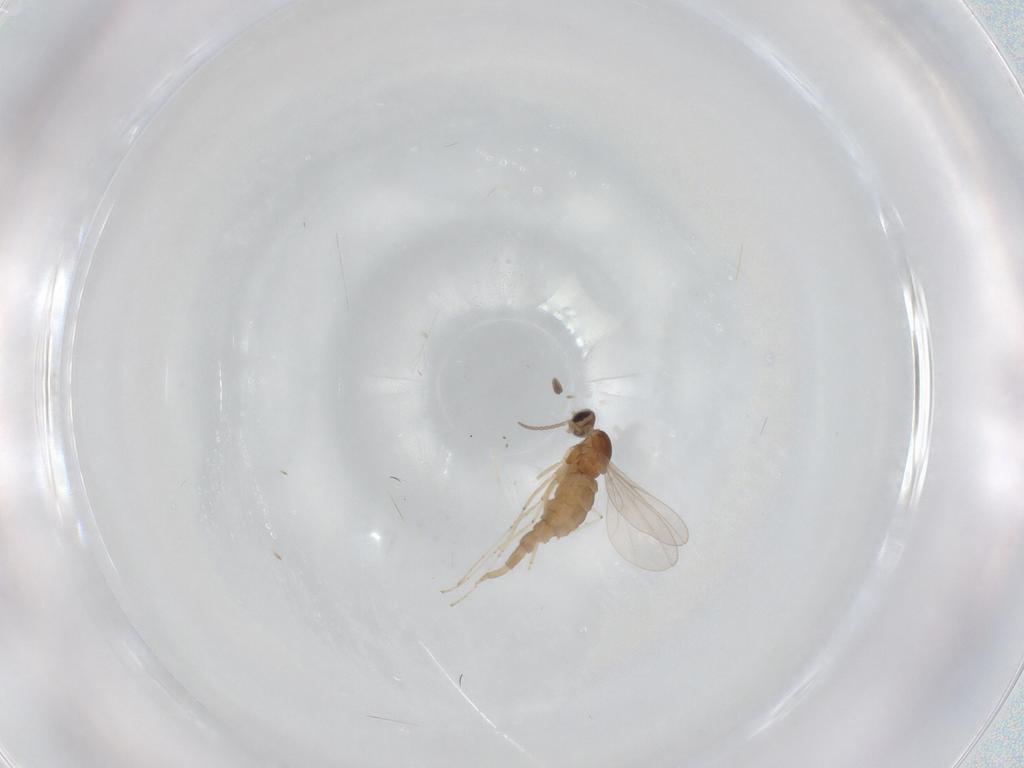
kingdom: Animalia
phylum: Arthropoda
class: Insecta
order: Diptera
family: Cecidomyiidae
